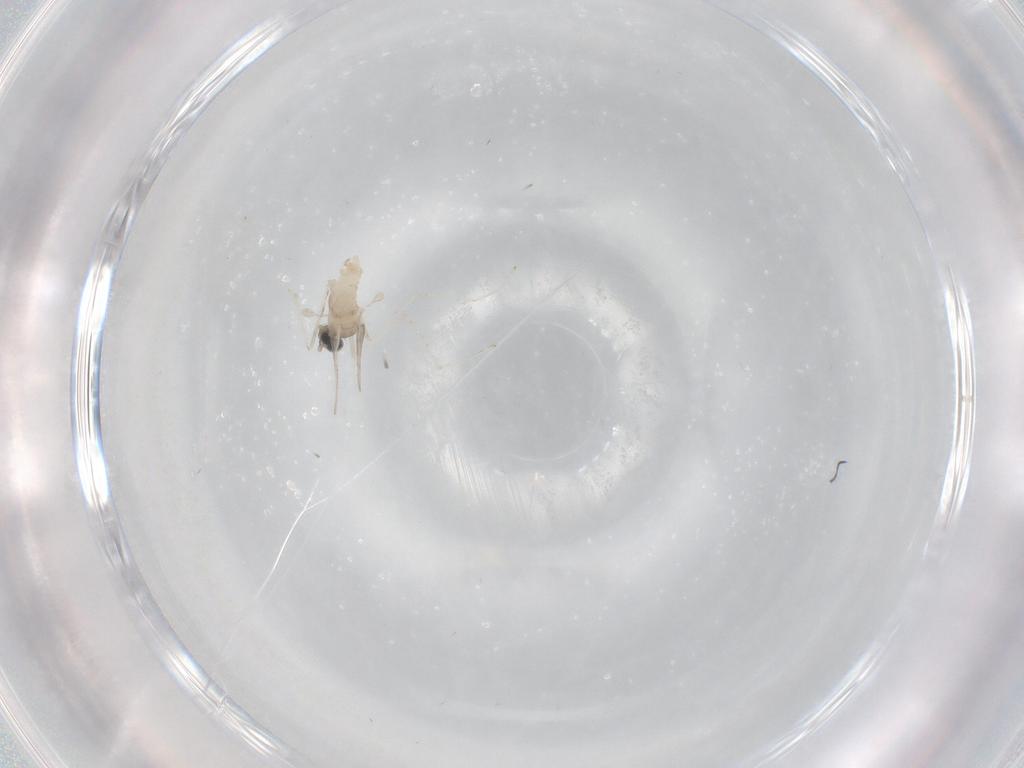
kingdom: Animalia
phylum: Arthropoda
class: Insecta
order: Diptera
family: Cecidomyiidae
